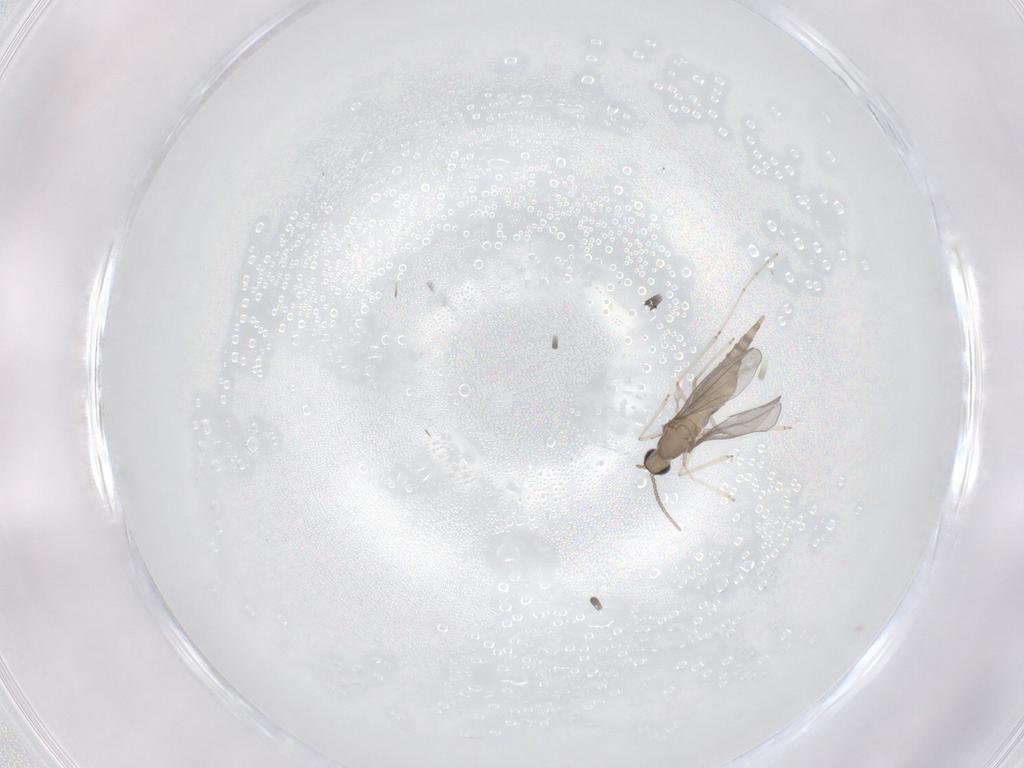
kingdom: Animalia
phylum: Arthropoda
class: Insecta
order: Diptera
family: Cecidomyiidae
